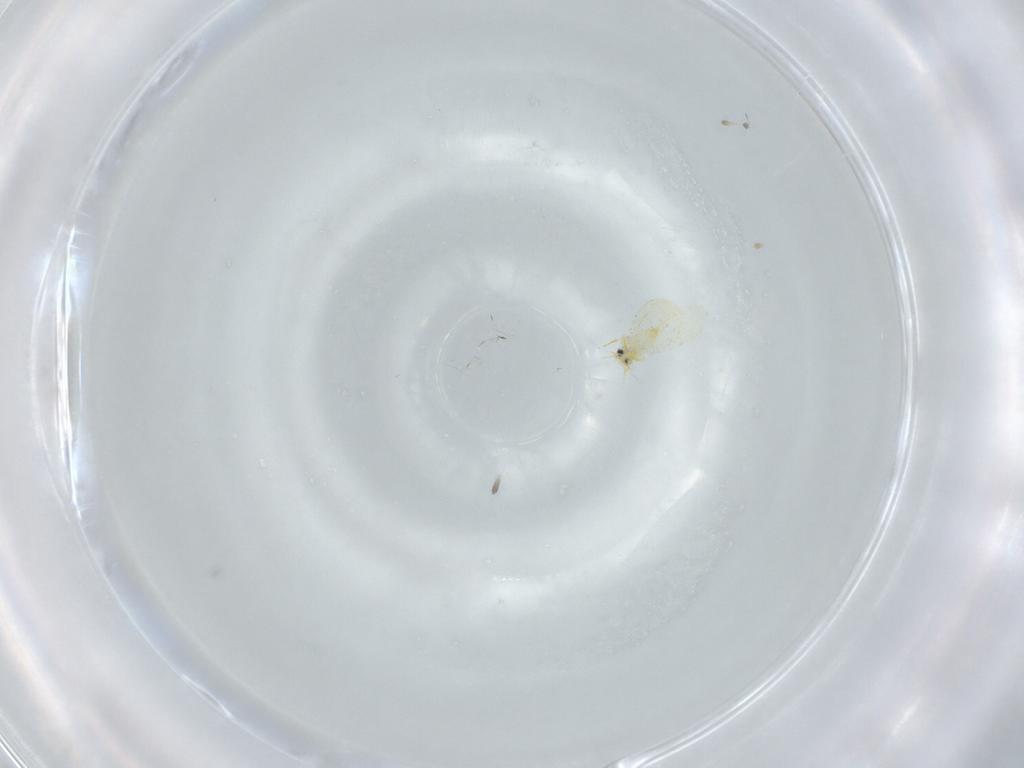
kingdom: Animalia
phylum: Arthropoda
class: Insecta
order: Hemiptera
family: Aleyrodidae
